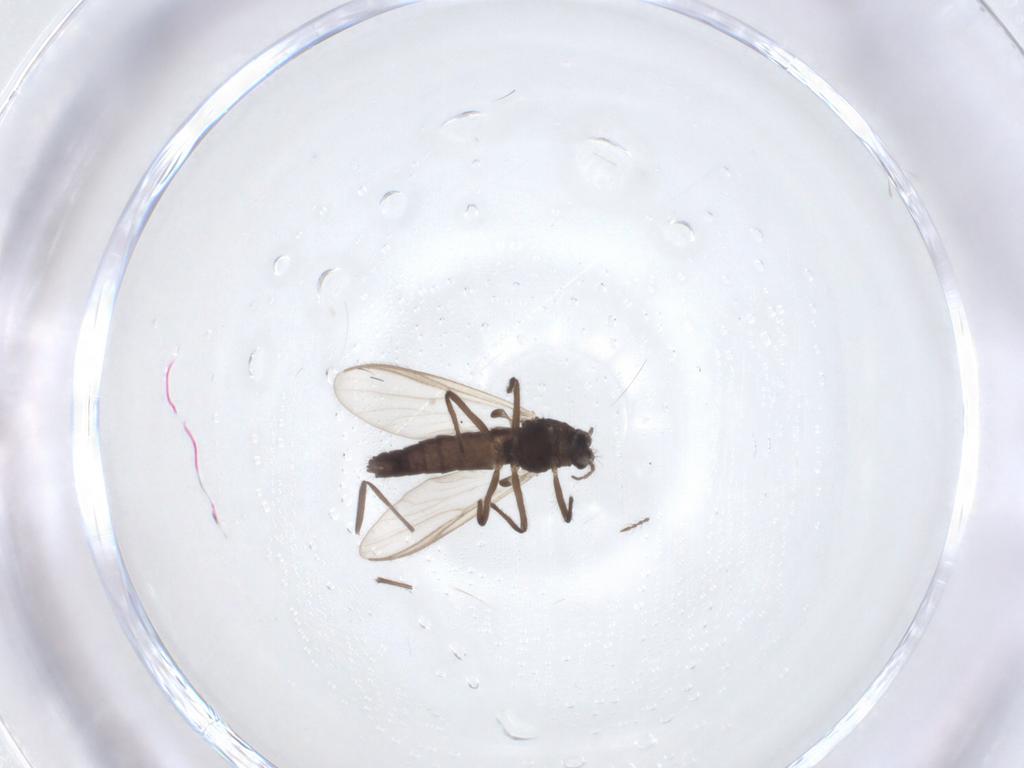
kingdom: Animalia
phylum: Arthropoda
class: Insecta
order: Diptera
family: Chironomidae
